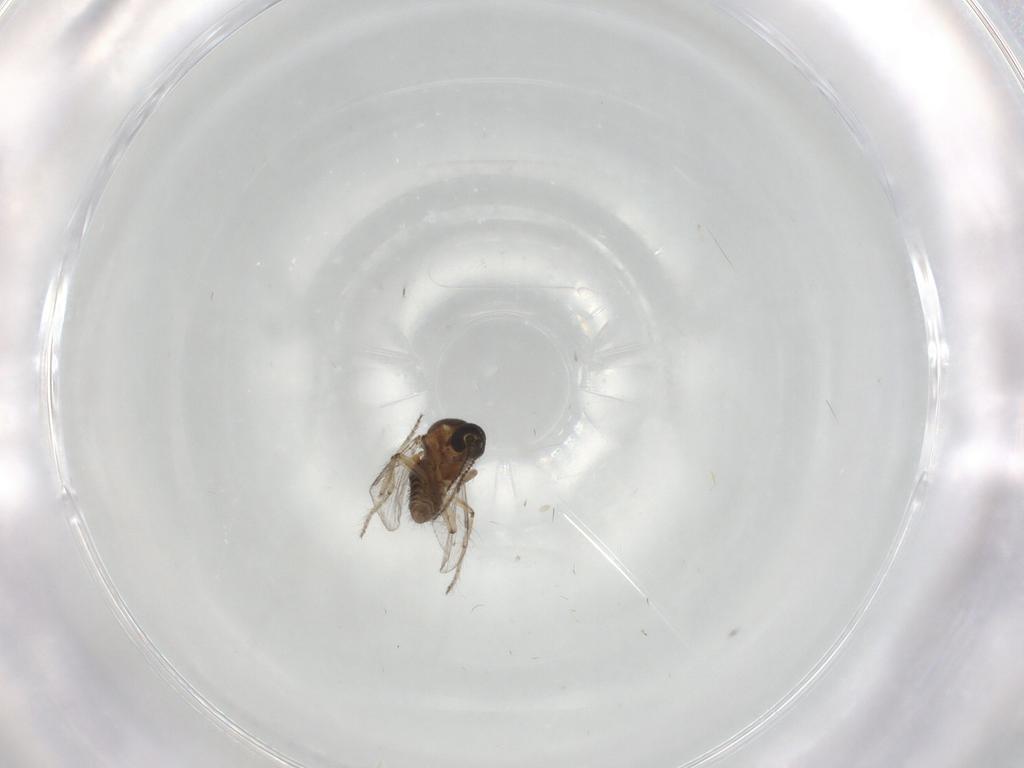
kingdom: Animalia
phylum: Arthropoda
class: Insecta
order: Diptera
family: Ceratopogonidae
